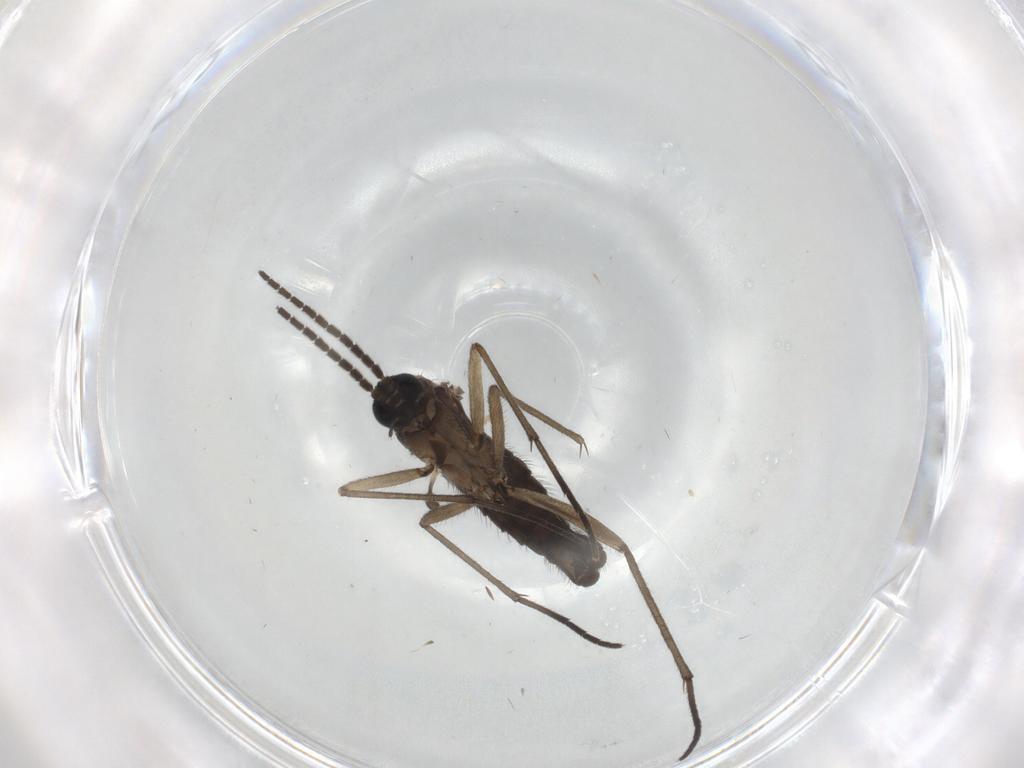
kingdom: Animalia
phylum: Arthropoda
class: Insecta
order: Diptera
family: Sciaridae
